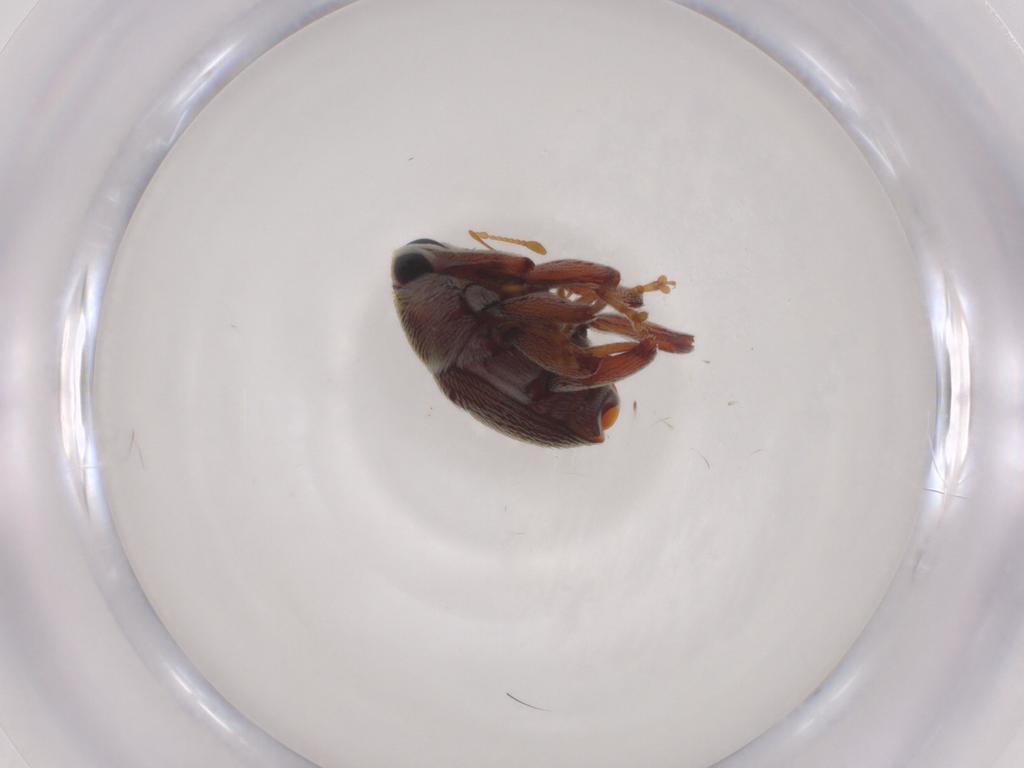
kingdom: Animalia
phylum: Arthropoda
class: Insecta
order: Coleoptera
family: Curculionidae
